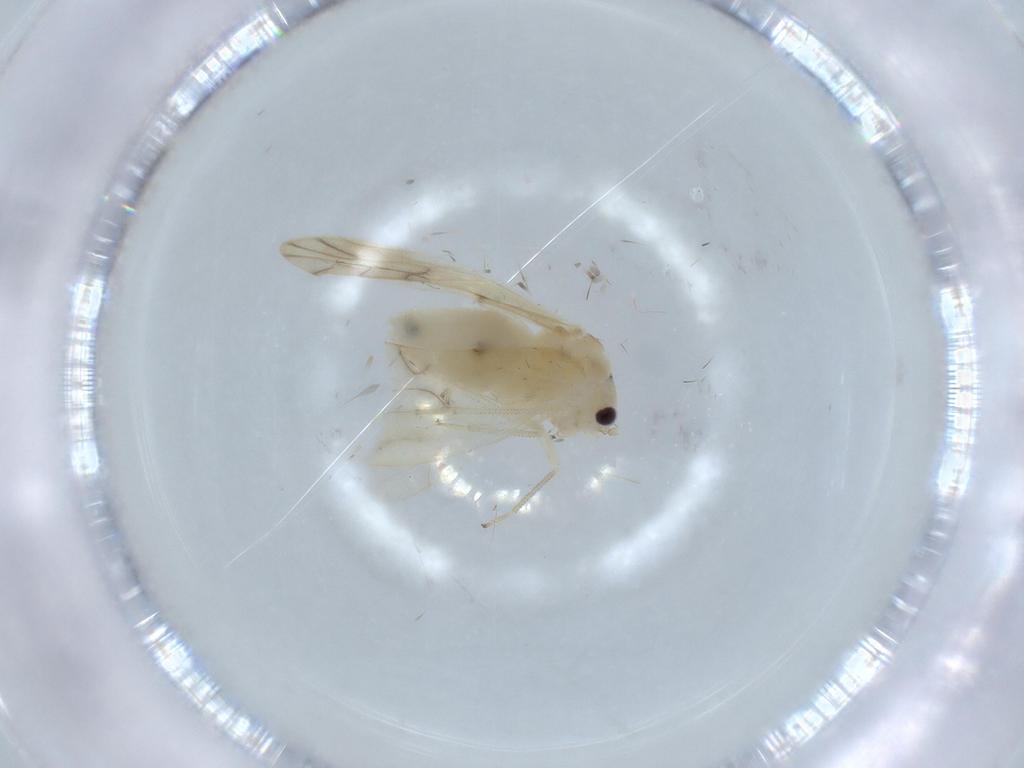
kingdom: Animalia
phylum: Arthropoda
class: Insecta
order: Psocodea
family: Caeciliusidae
